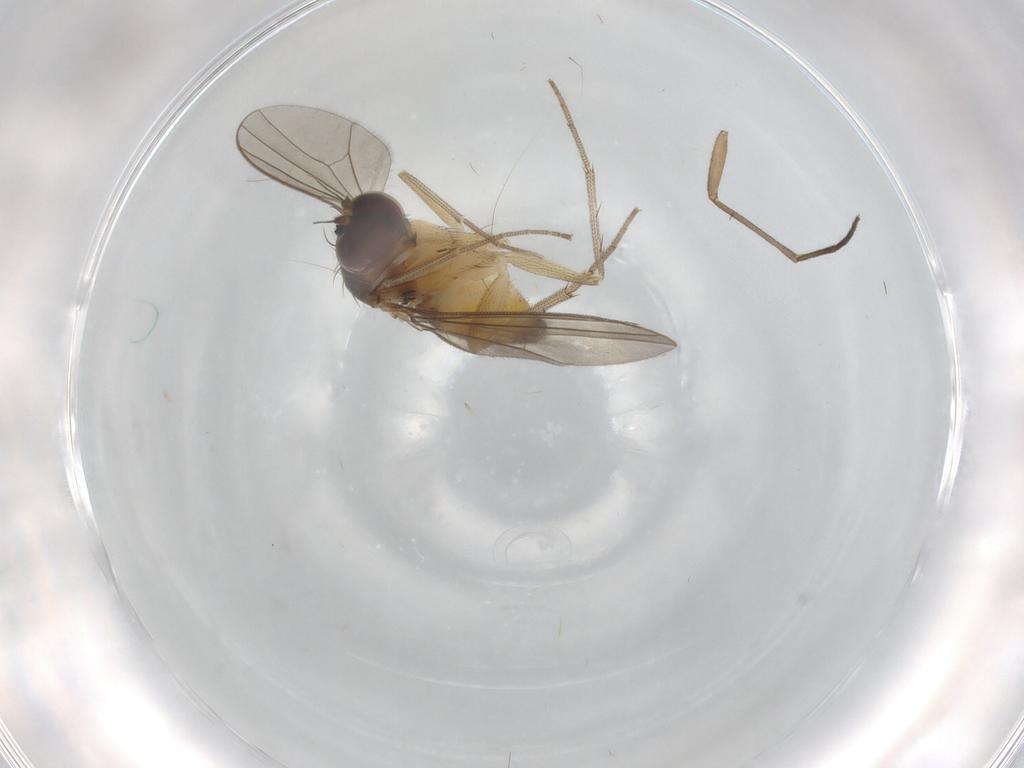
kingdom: Animalia
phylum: Arthropoda
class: Insecta
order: Diptera
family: Dolichopodidae
